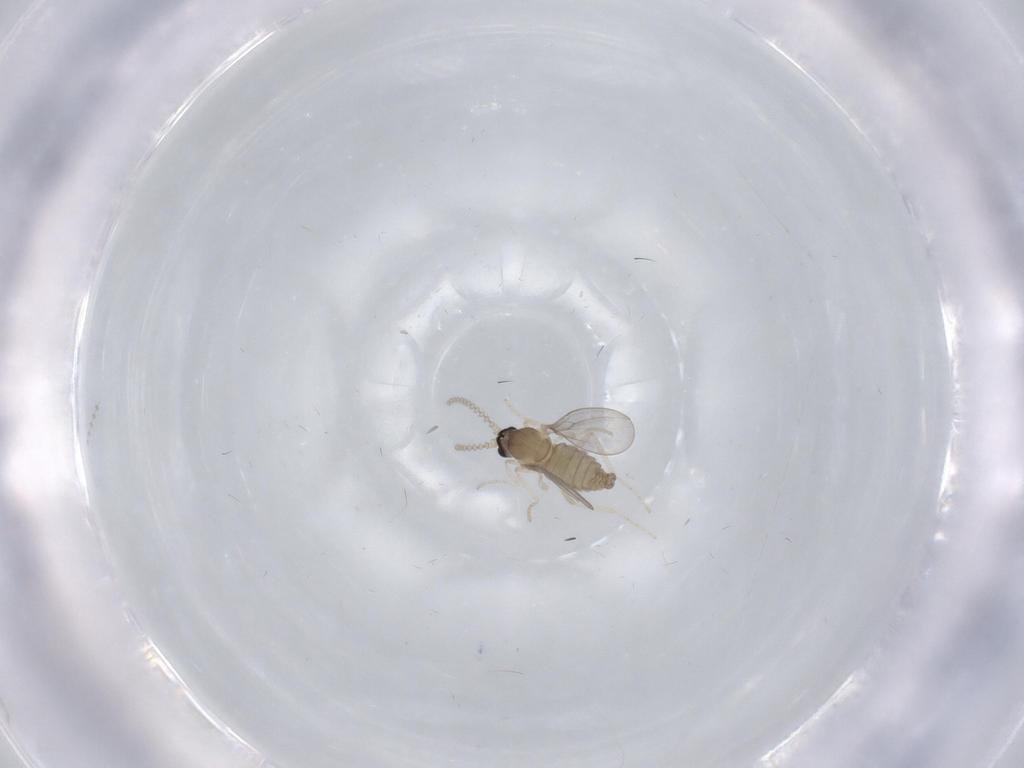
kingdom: Animalia
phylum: Arthropoda
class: Insecta
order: Diptera
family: Cecidomyiidae
